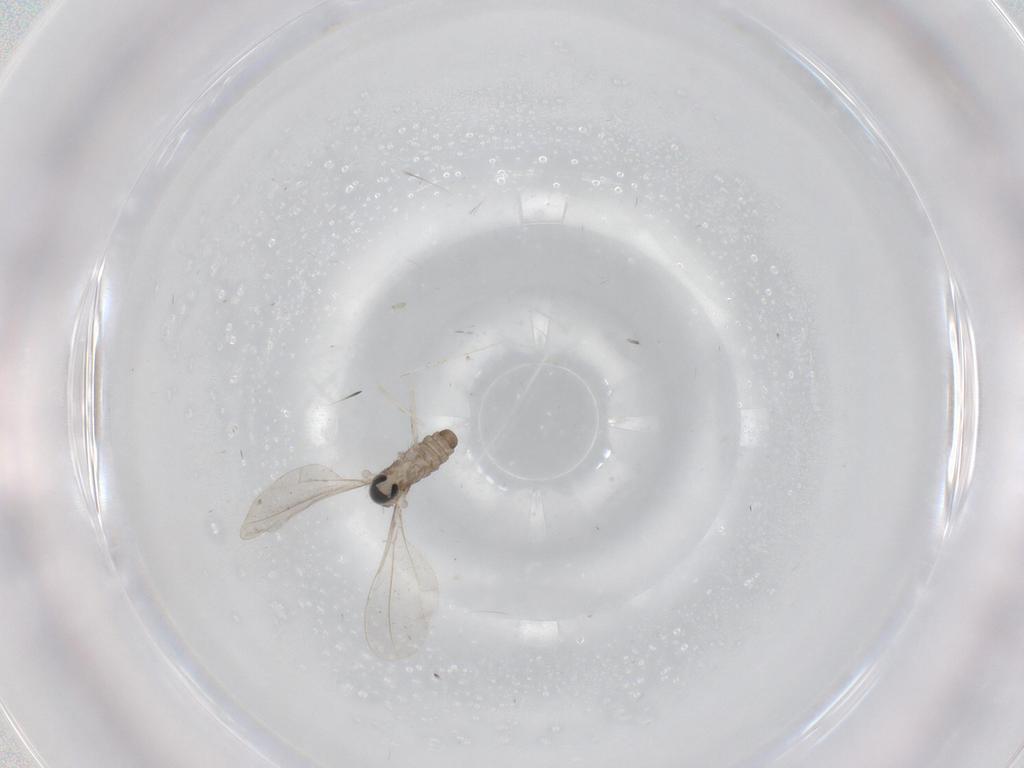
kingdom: Animalia
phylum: Arthropoda
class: Insecta
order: Diptera
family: Cecidomyiidae
